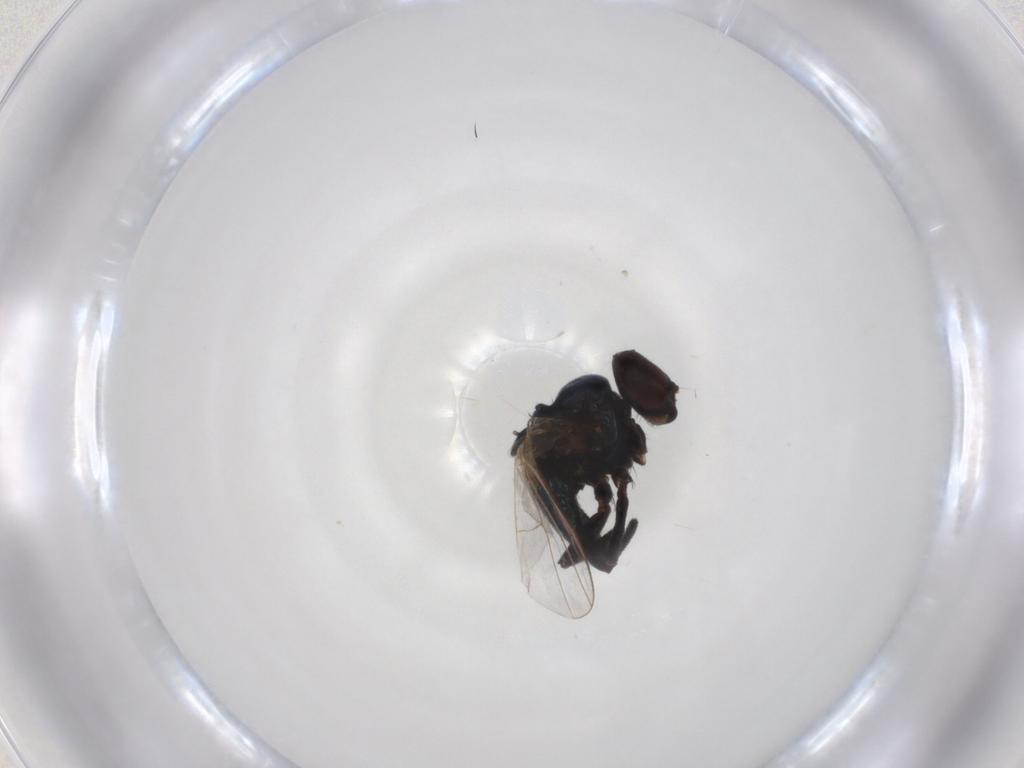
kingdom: Animalia
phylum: Arthropoda
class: Insecta
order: Diptera
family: Agromyzidae
